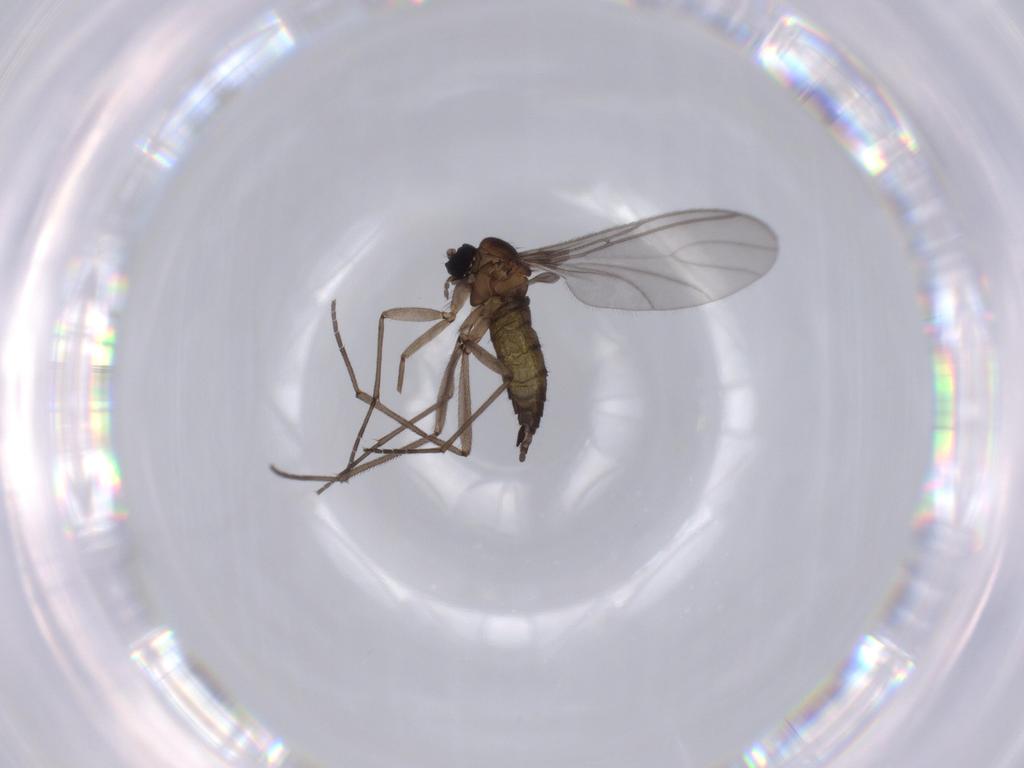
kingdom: Animalia
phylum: Arthropoda
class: Insecta
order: Diptera
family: Sciaridae
